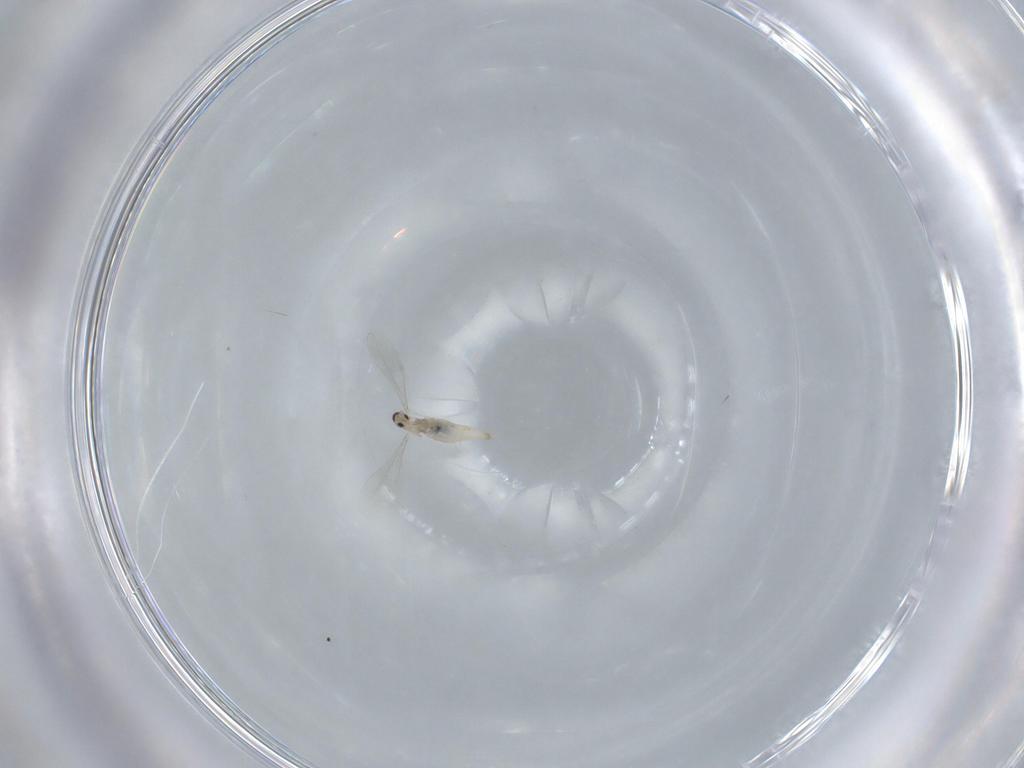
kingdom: Animalia
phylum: Arthropoda
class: Insecta
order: Diptera
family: Cecidomyiidae
